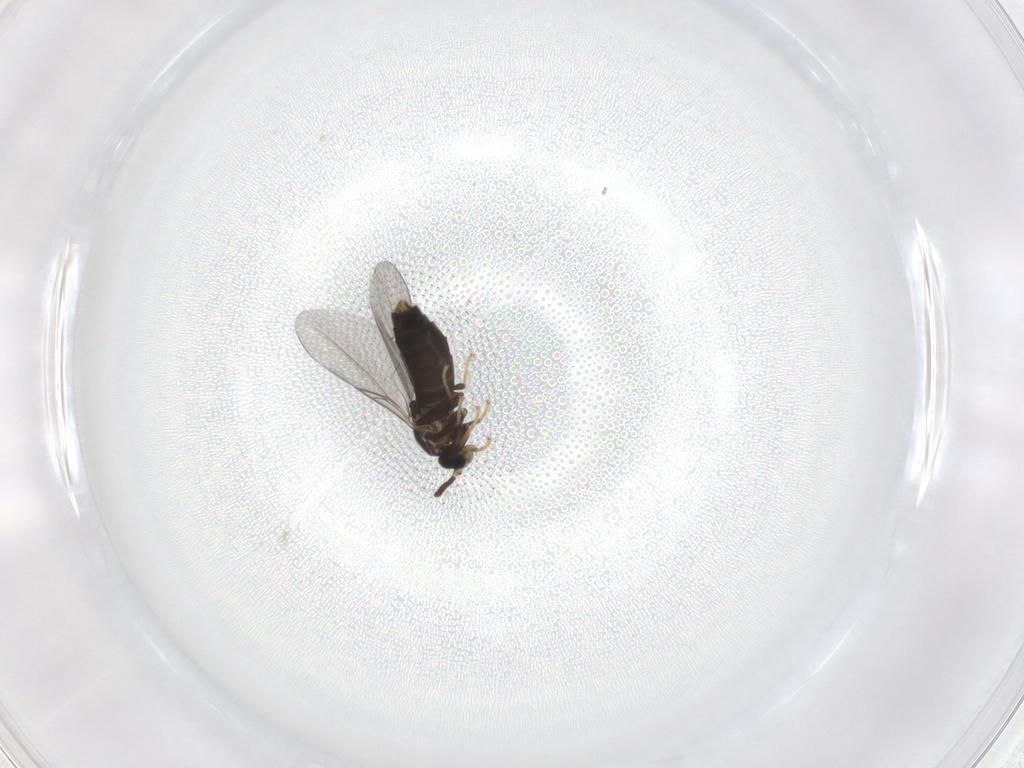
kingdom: Animalia
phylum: Arthropoda
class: Insecta
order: Diptera
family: Scatopsidae
